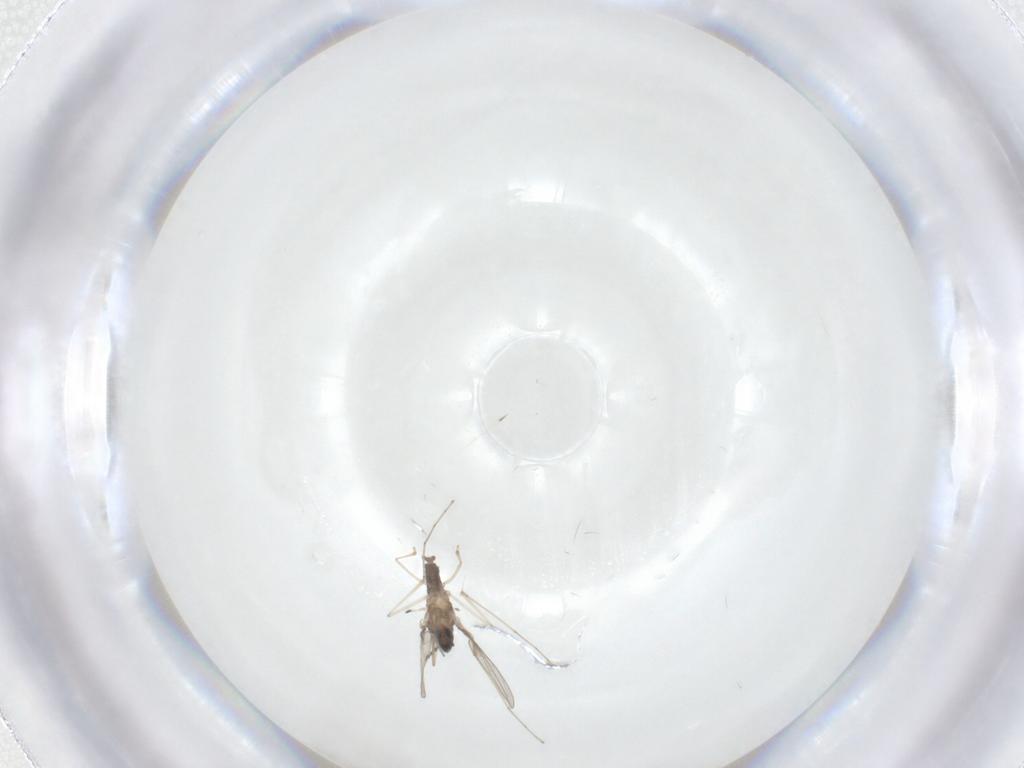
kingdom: Animalia
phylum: Arthropoda
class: Insecta
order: Diptera
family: Cecidomyiidae
